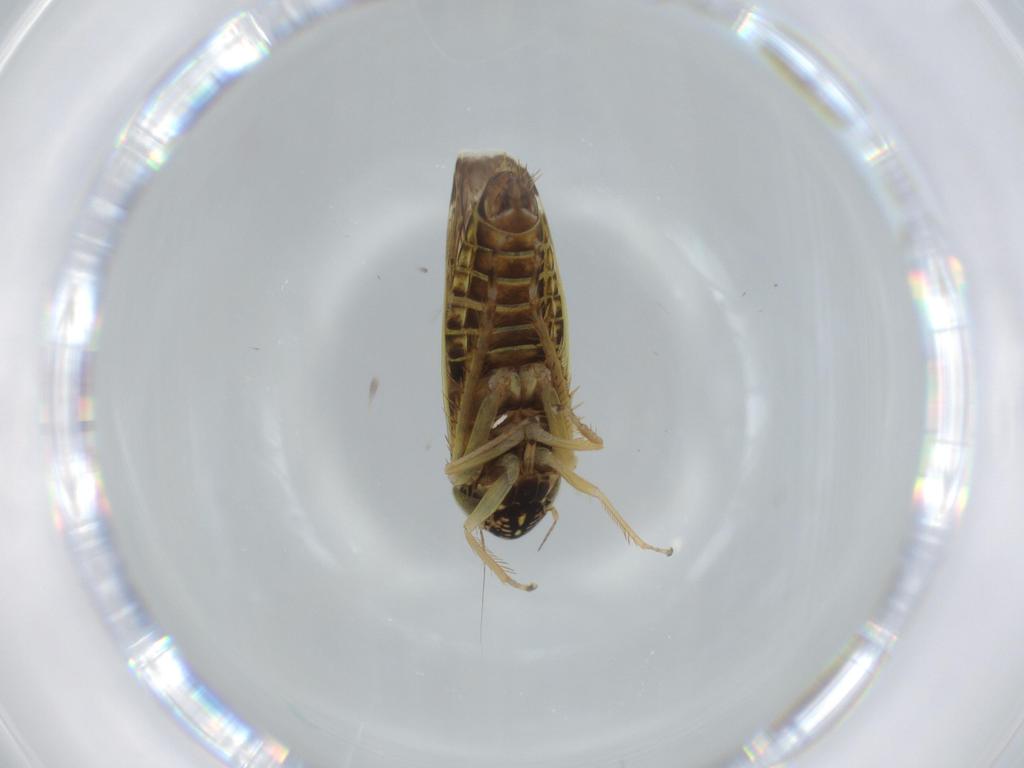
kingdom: Animalia
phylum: Arthropoda
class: Insecta
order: Hemiptera
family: Cicadellidae
